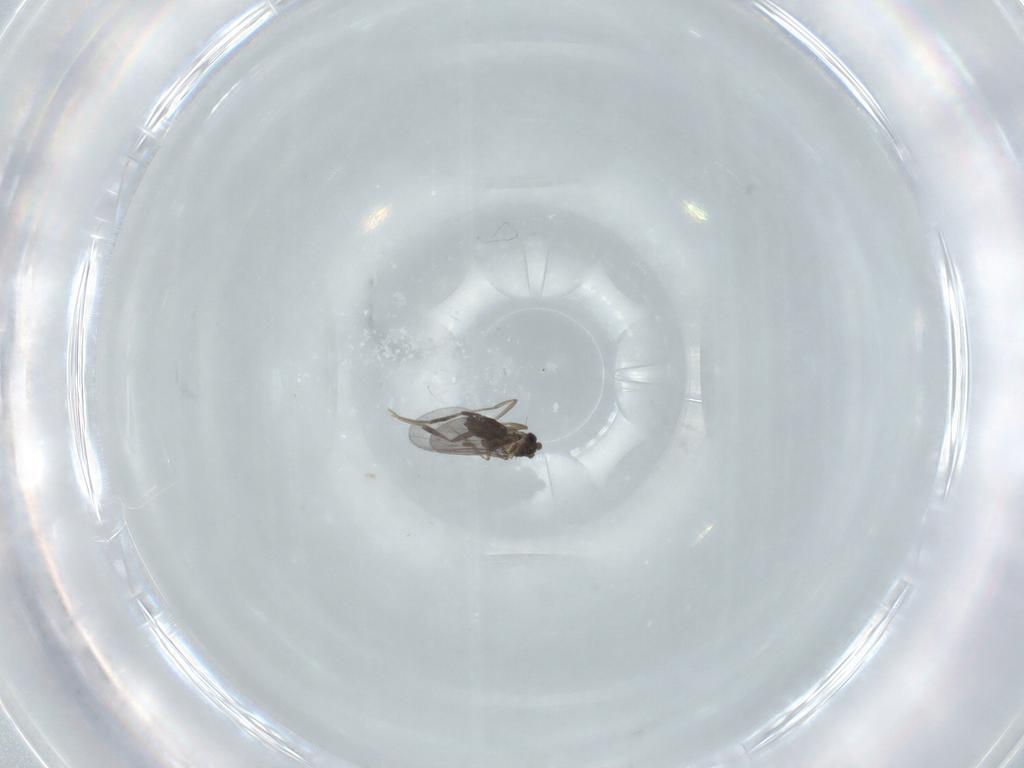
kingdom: Animalia
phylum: Arthropoda
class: Insecta
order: Diptera
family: Phoridae
